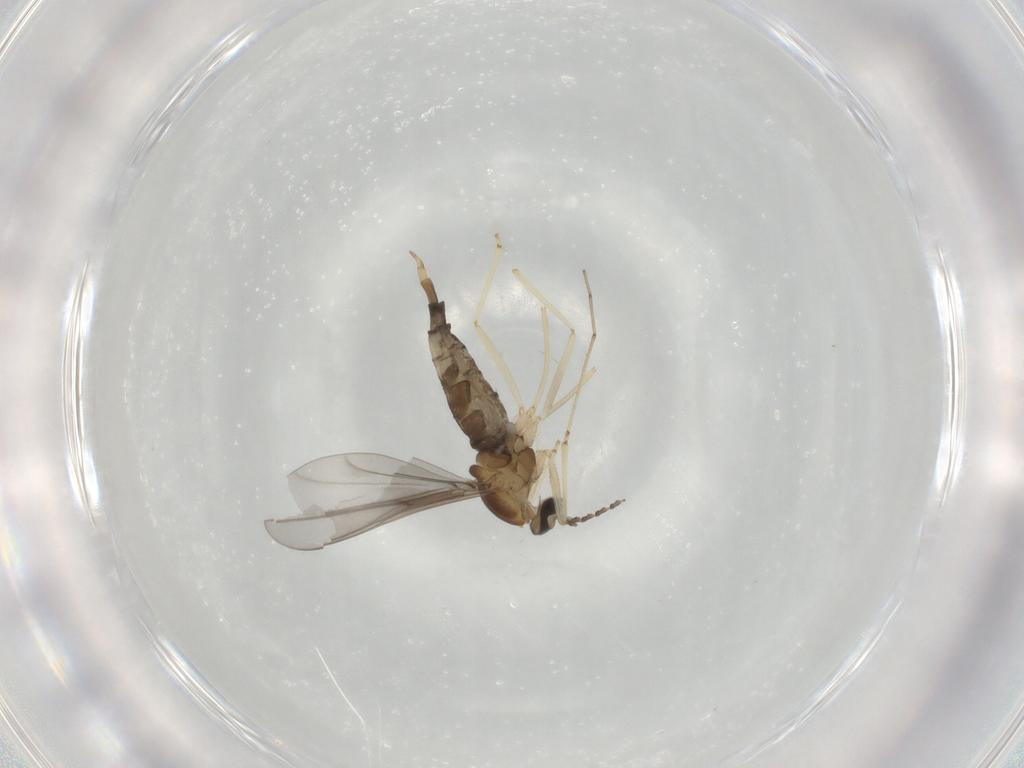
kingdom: Animalia
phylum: Arthropoda
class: Insecta
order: Diptera
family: Cecidomyiidae
